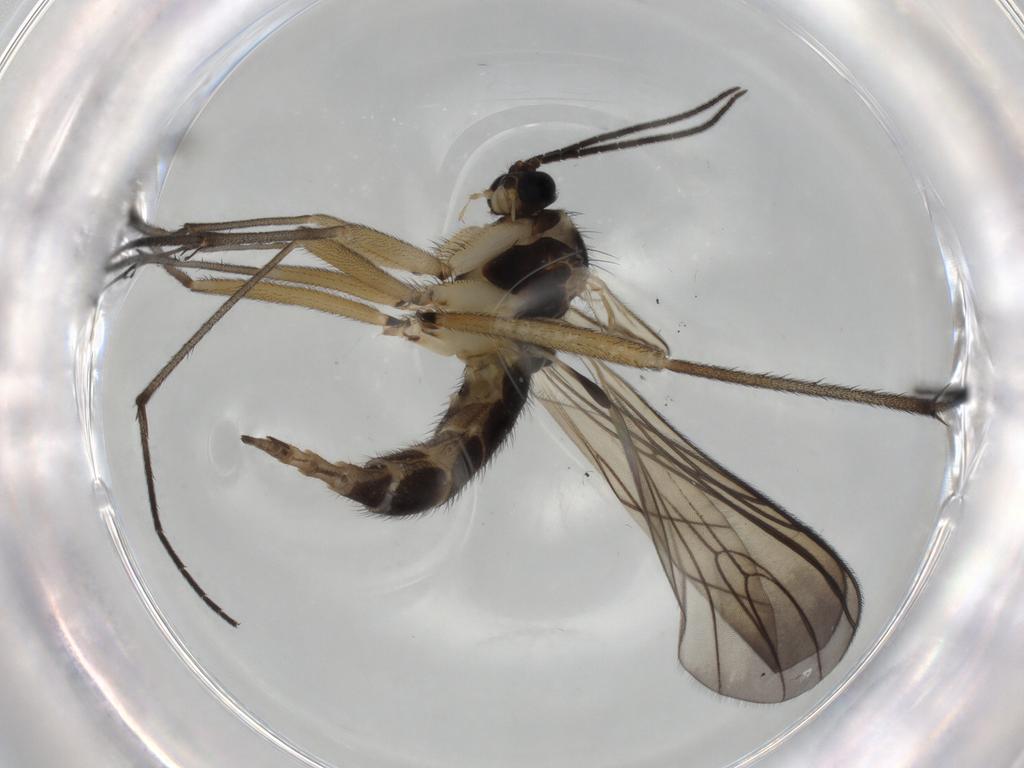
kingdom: Animalia
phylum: Arthropoda
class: Insecta
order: Diptera
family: Sciaridae
